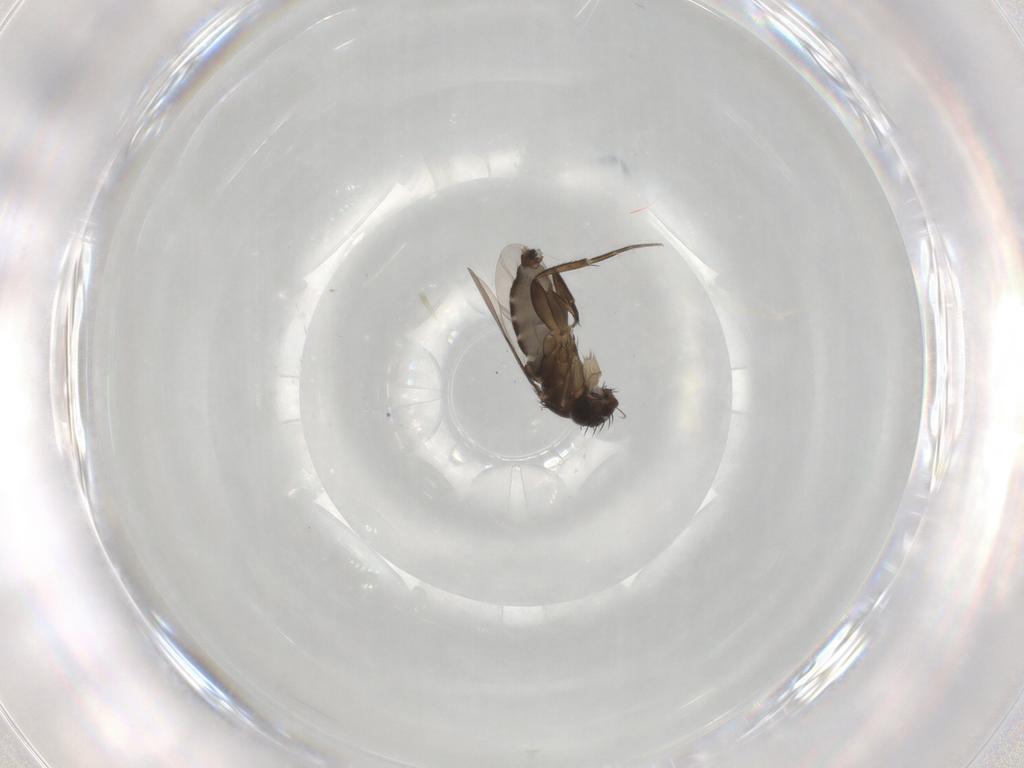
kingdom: Animalia
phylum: Arthropoda
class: Insecta
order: Diptera
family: Phoridae
